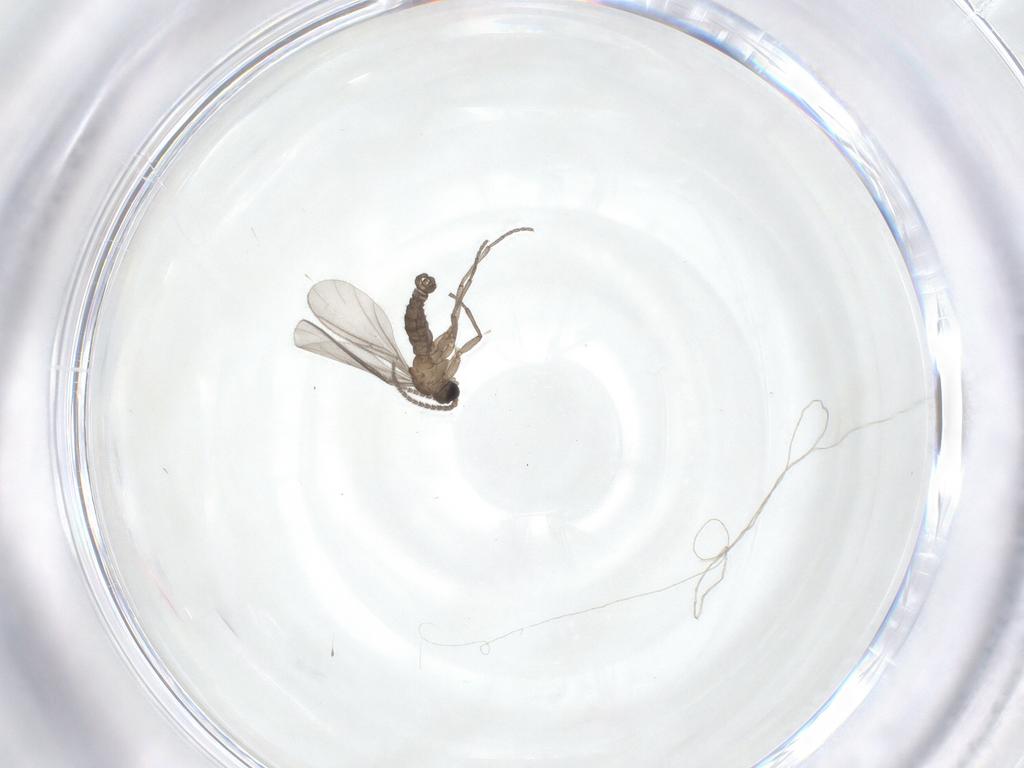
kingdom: Animalia
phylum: Arthropoda
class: Insecta
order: Diptera
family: Sciaridae
